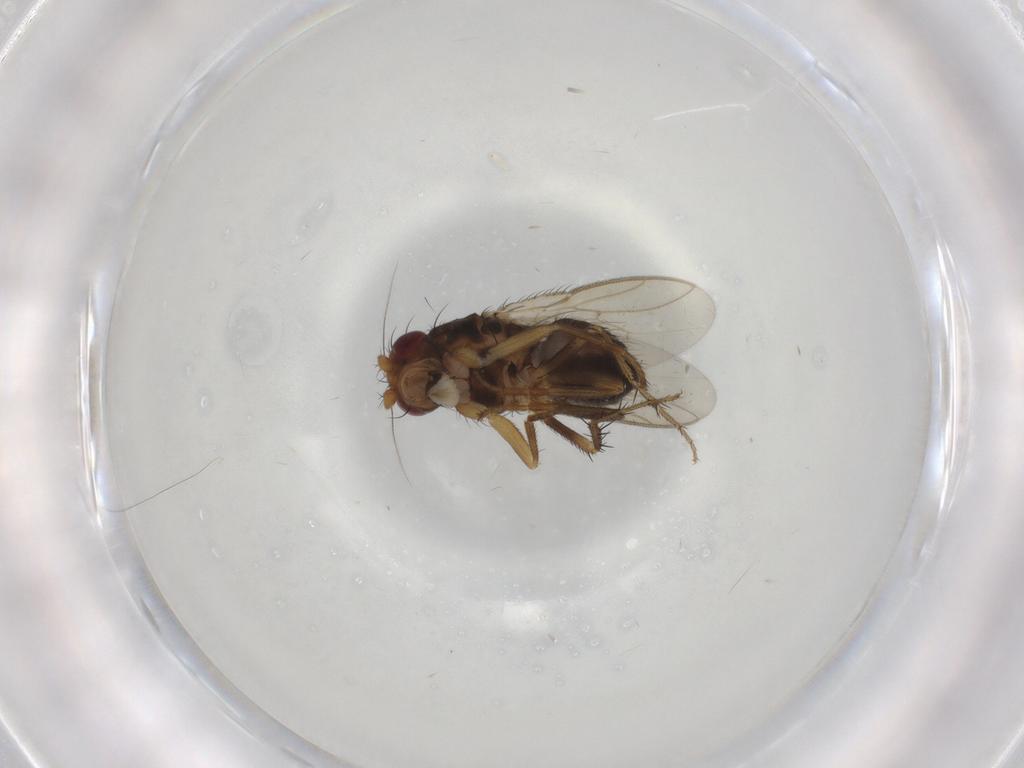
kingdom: Animalia
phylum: Arthropoda
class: Insecta
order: Diptera
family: Sphaeroceridae
